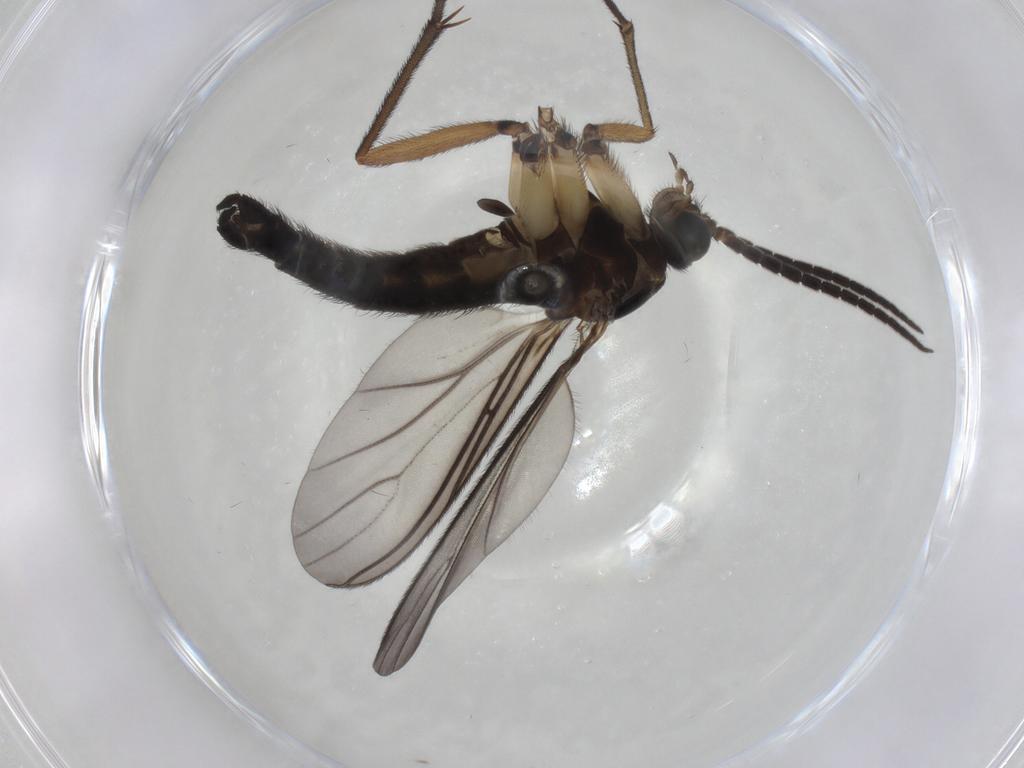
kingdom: Animalia
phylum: Arthropoda
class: Insecta
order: Diptera
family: Sciaridae
